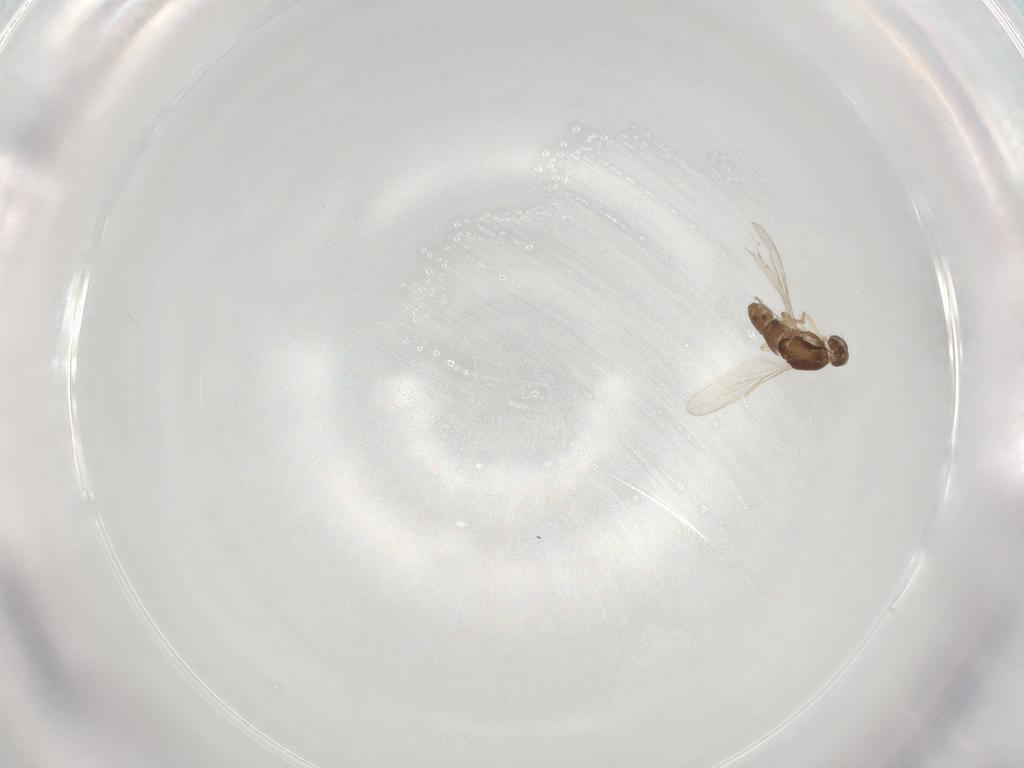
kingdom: Animalia
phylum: Arthropoda
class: Insecta
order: Diptera
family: Ceratopogonidae
